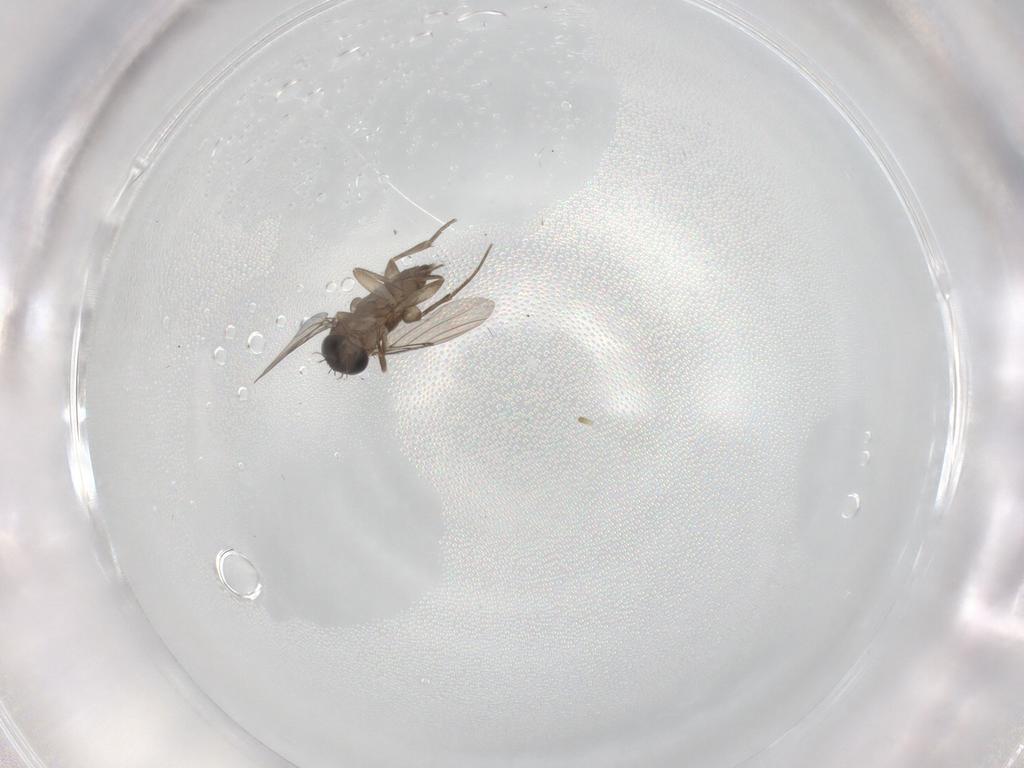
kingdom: Animalia
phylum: Arthropoda
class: Insecta
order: Diptera
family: Phoridae
